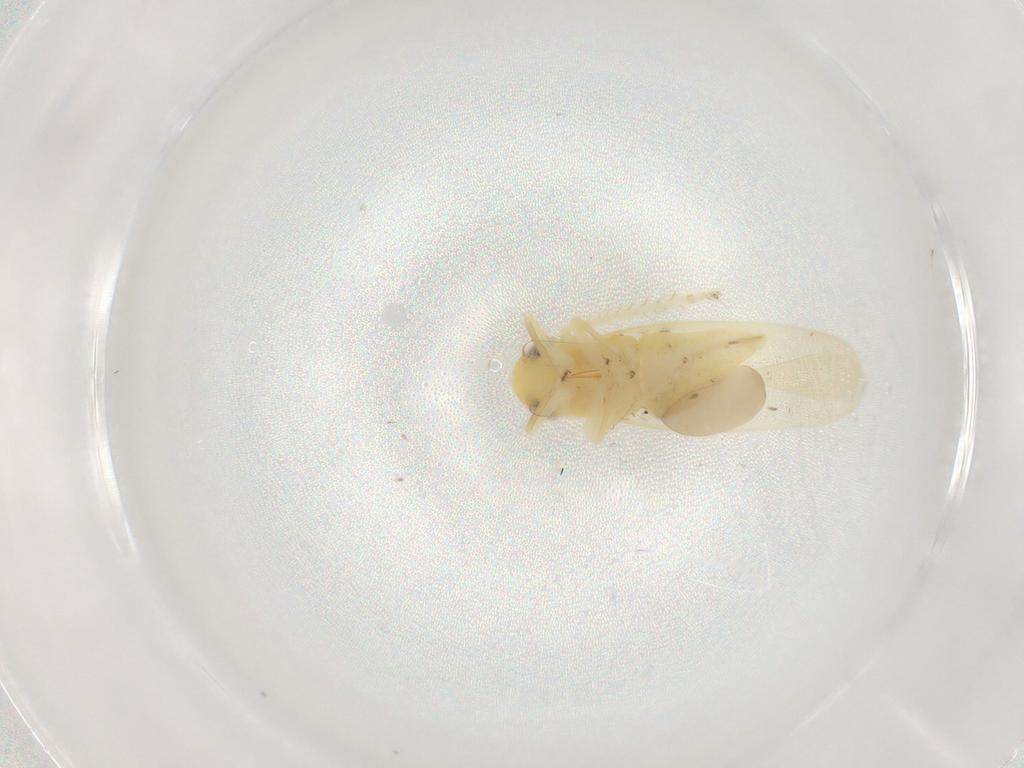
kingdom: Animalia
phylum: Arthropoda
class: Insecta
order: Hemiptera
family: Cicadellidae
